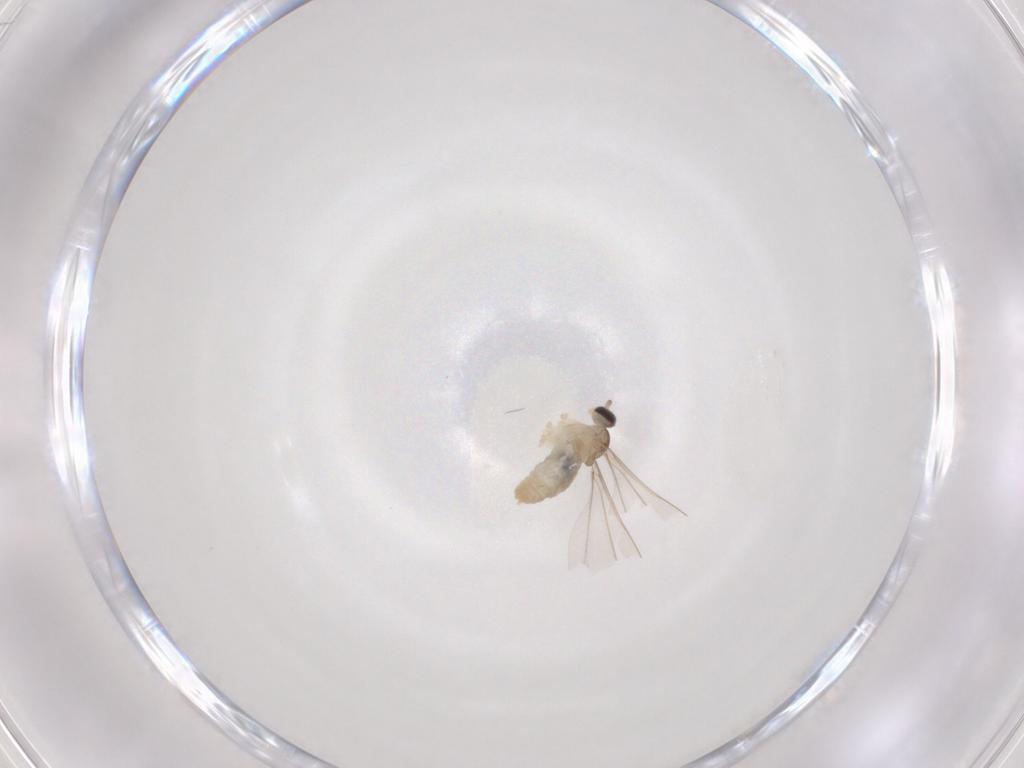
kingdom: Animalia
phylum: Arthropoda
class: Insecta
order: Diptera
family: Cecidomyiidae
